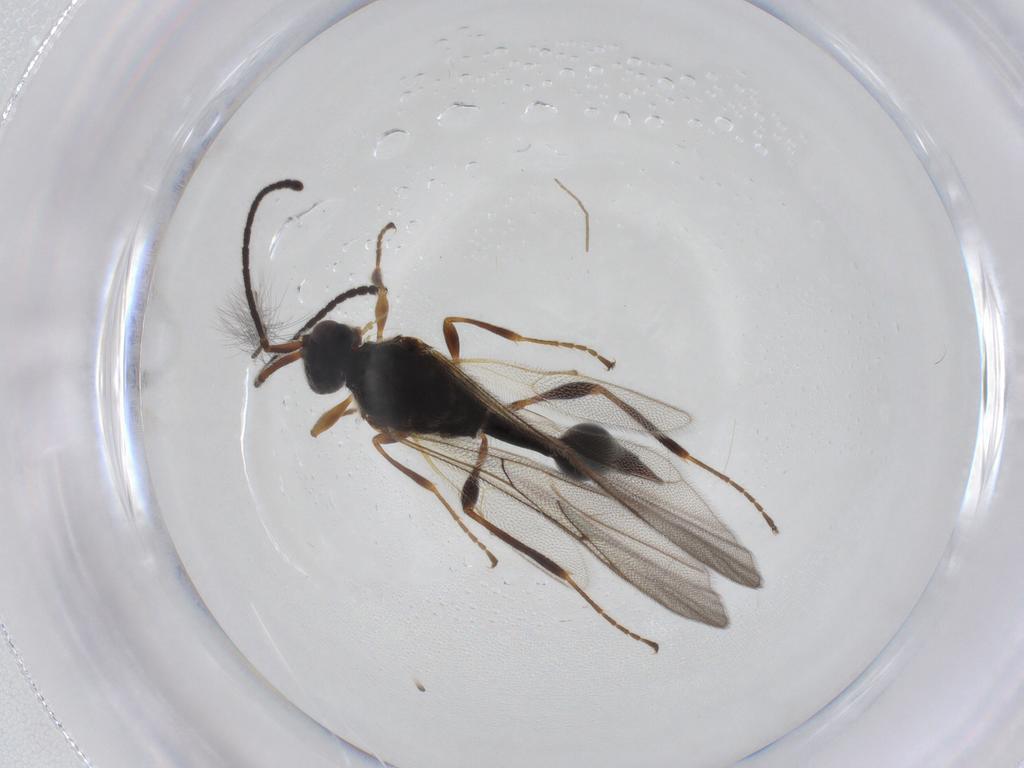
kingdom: Animalia
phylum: Arthropoda
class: Insecta
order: Hymenoptera
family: Diapriidae
